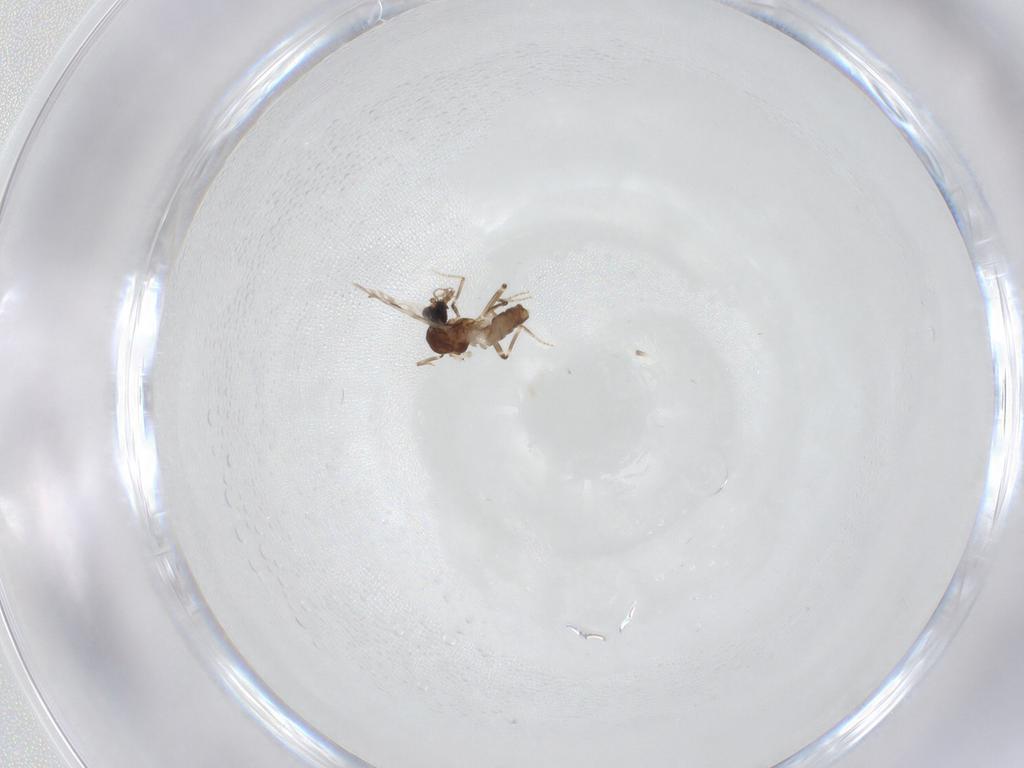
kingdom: Animalia
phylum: Arthropoda
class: Insecta
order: Diptera
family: Ceratopogonidae
